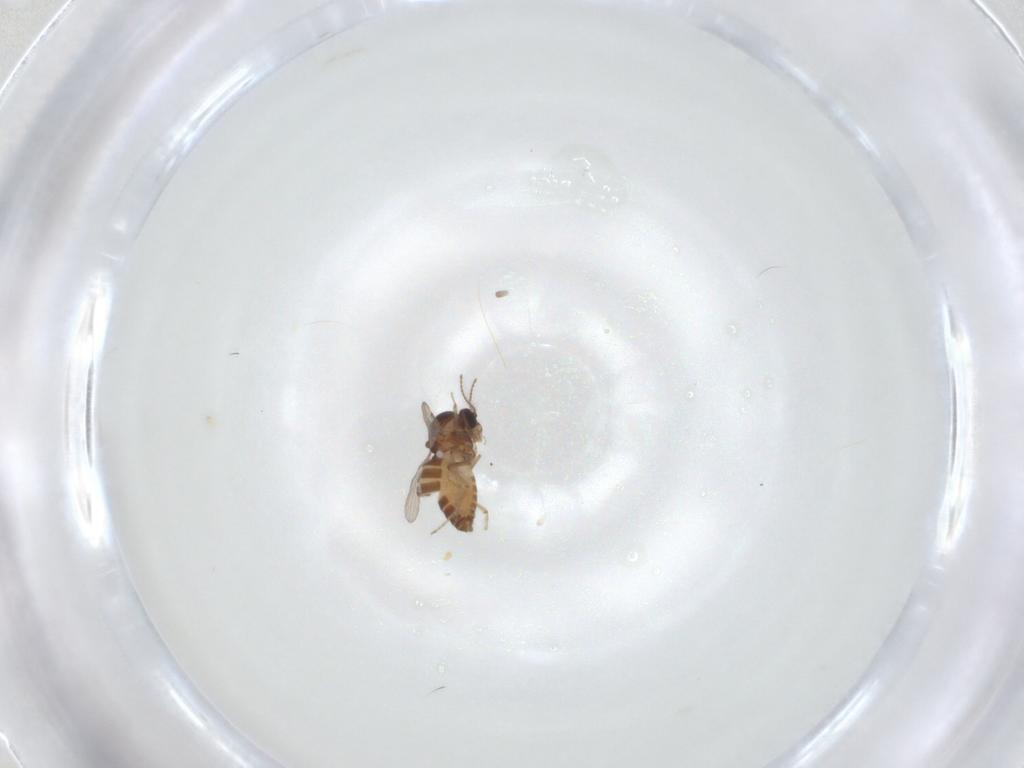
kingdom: Animalia
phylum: Arthropoda
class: Insecta
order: Diptera
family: Ceratopogonidae
